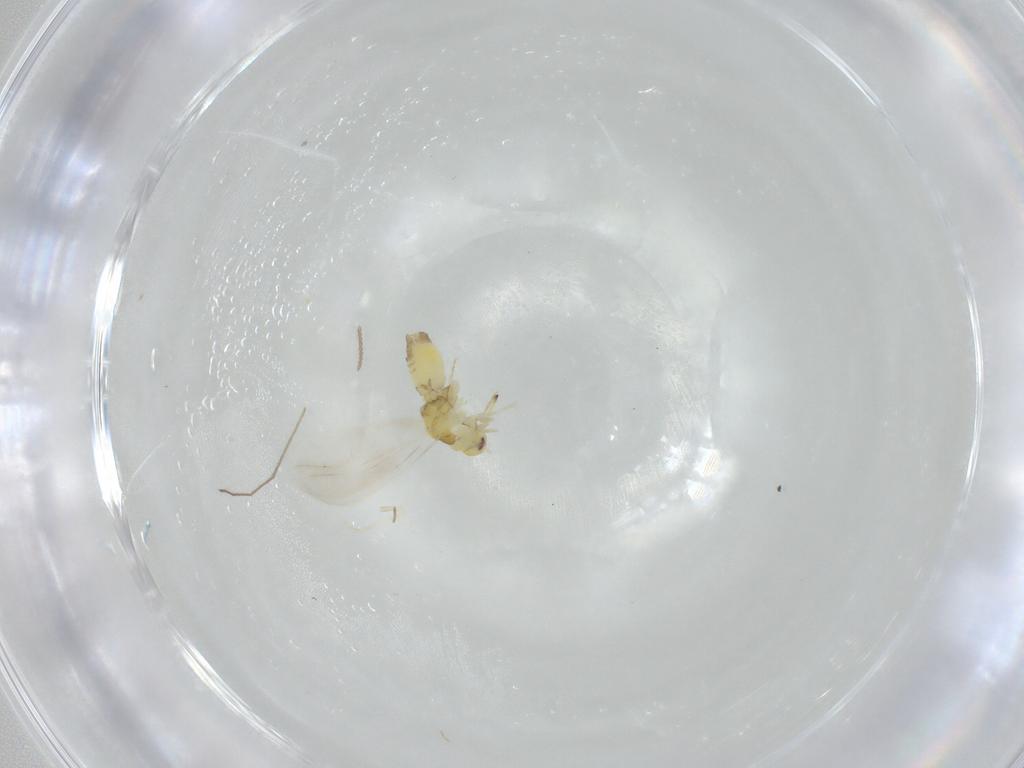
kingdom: Animalia
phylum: Arthropoda
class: Insecta
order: Hemiptera
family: Aleyrodidae
